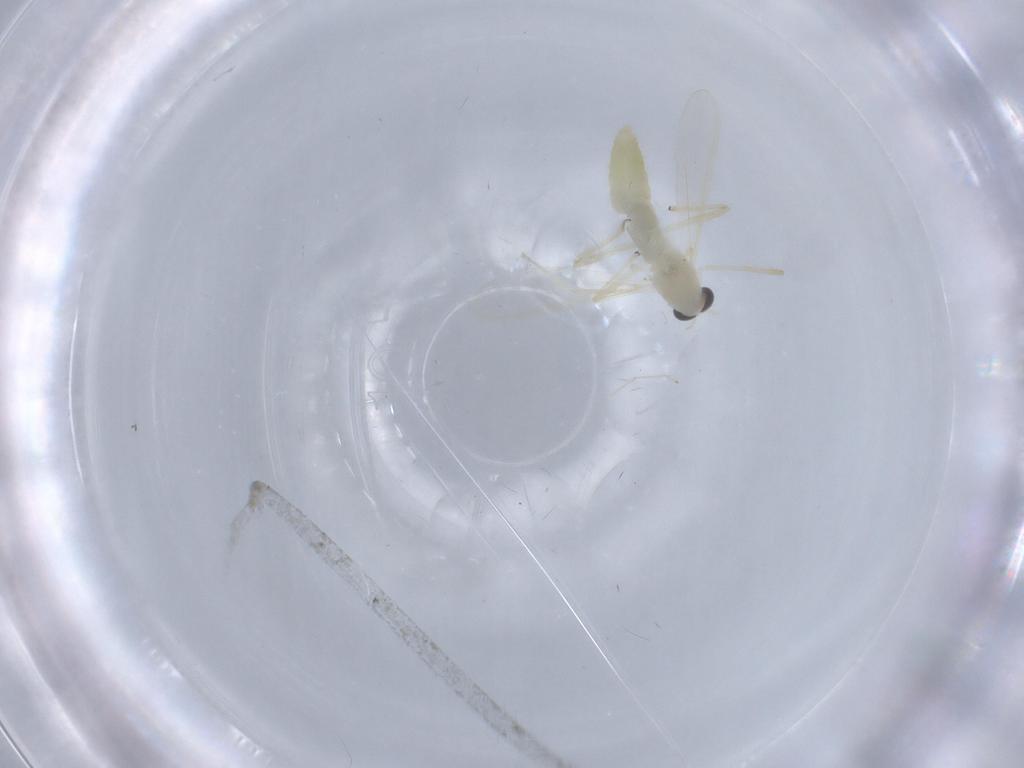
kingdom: Animalia
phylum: Arthropoda
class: Insecta
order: Diptera
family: Chironomidae
